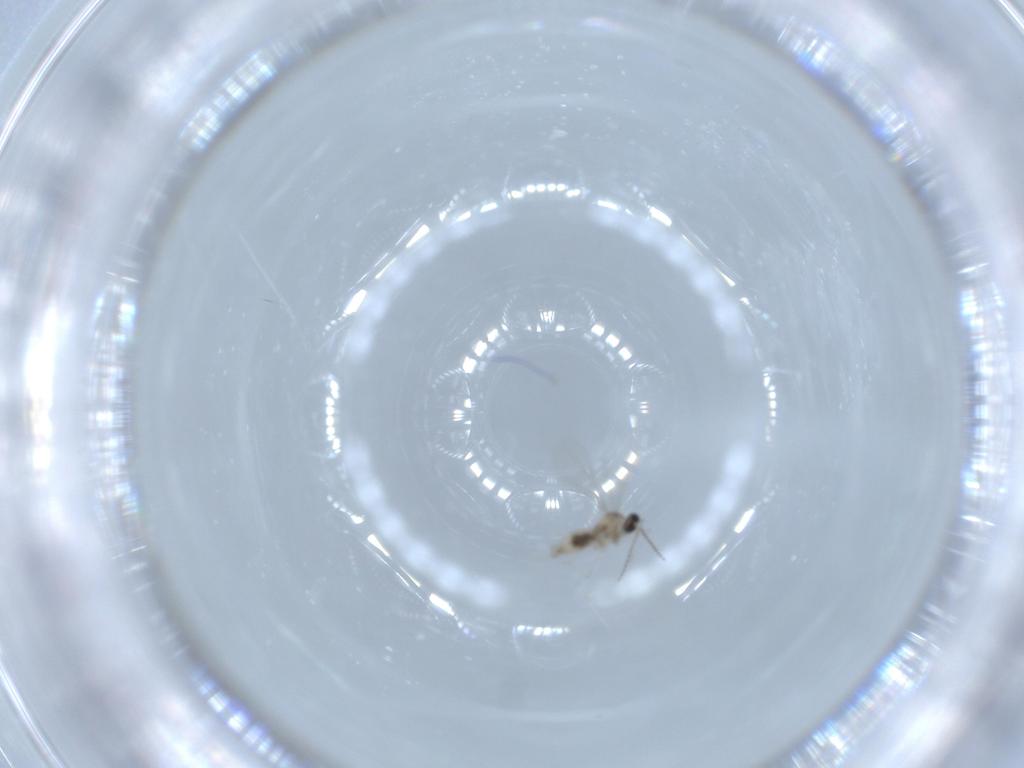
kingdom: Animalia
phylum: Arthropoda
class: Insecta
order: Diptera
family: Cecidomyiidae
